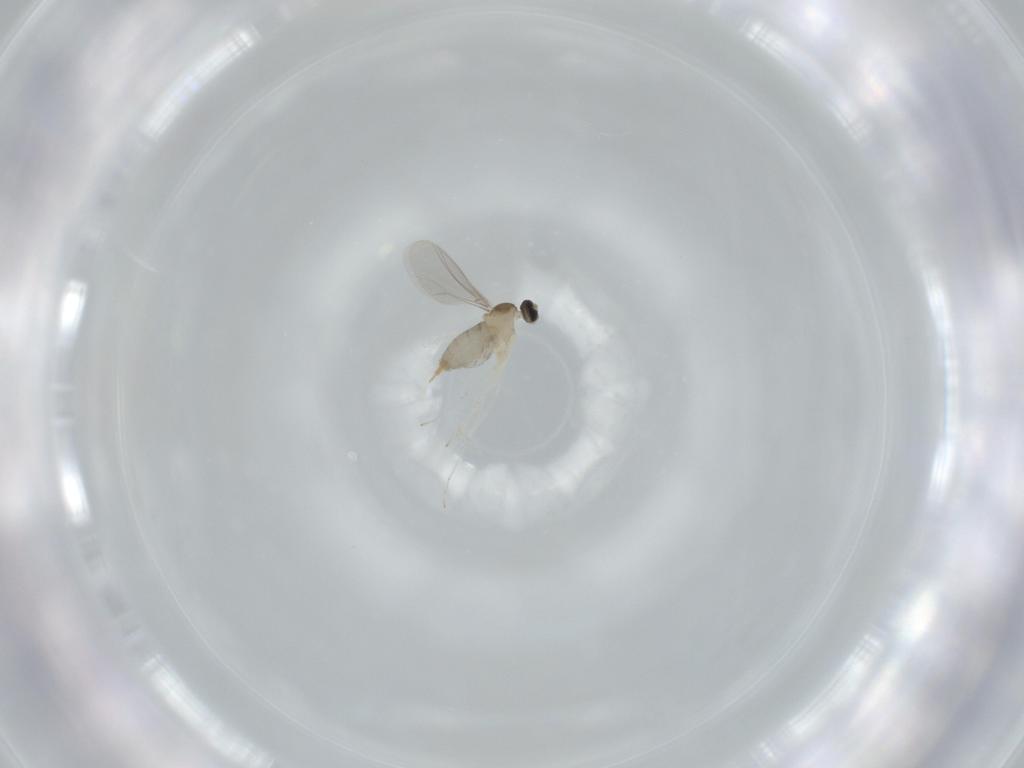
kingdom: Animalia
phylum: Arthropoda
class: Insecta
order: Diptera
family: Cecidomyiidae
